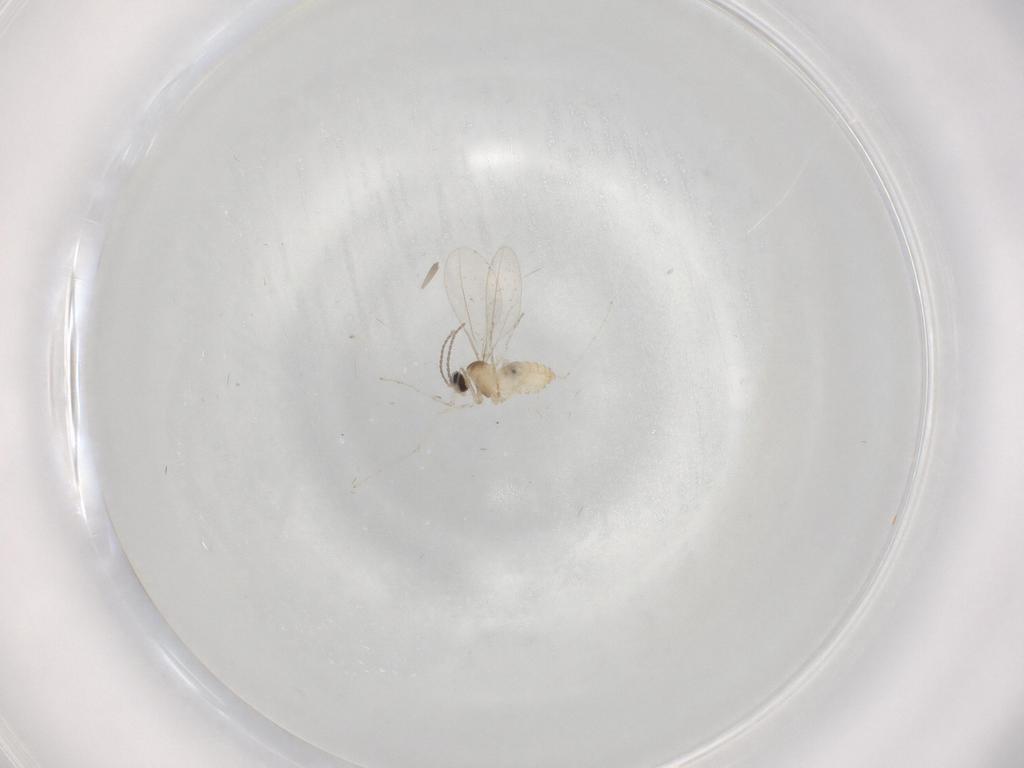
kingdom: Animalia
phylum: Arthropoda
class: Insecta
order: Diptera
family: Cecidomyiidae
